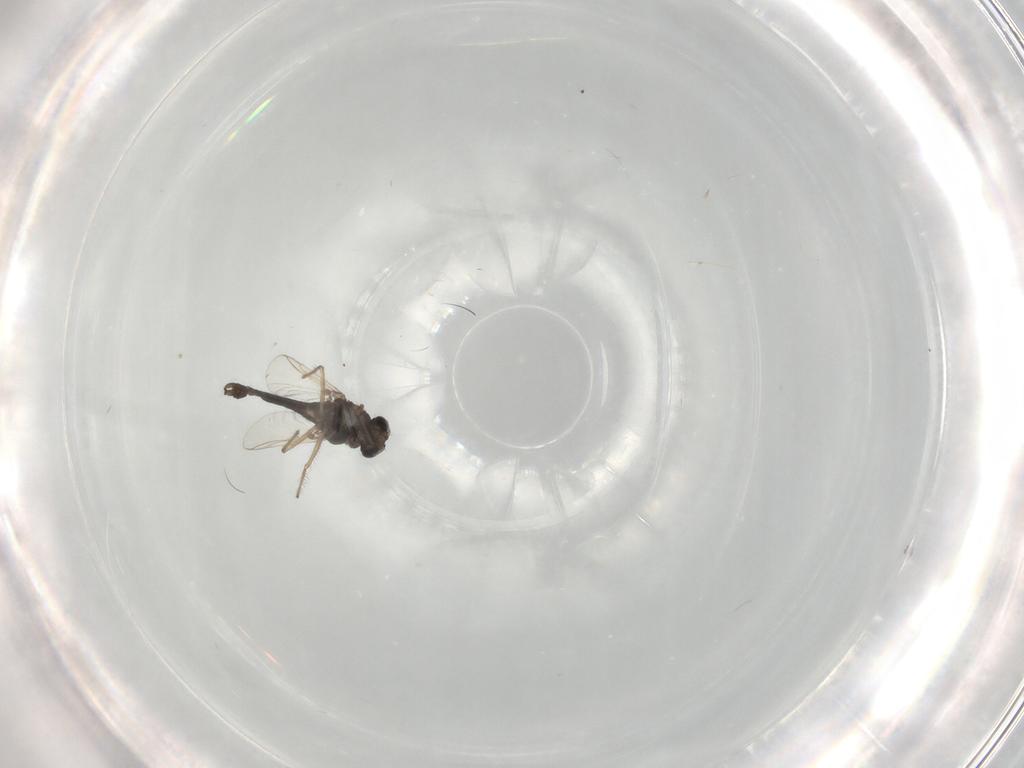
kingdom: Animalia
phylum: Arthropoda
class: Insecta
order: Diptera
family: Chironomidae
